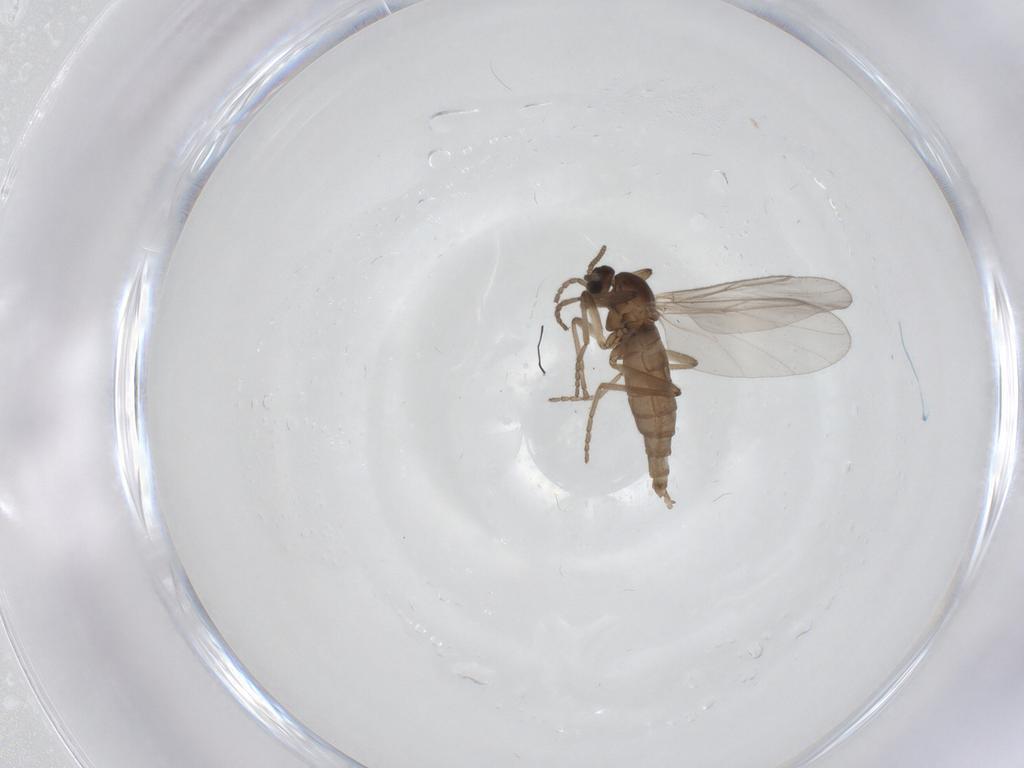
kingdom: Animalia
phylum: Arthropoda
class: Insecta
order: Diptera
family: Cecidomyiidae
